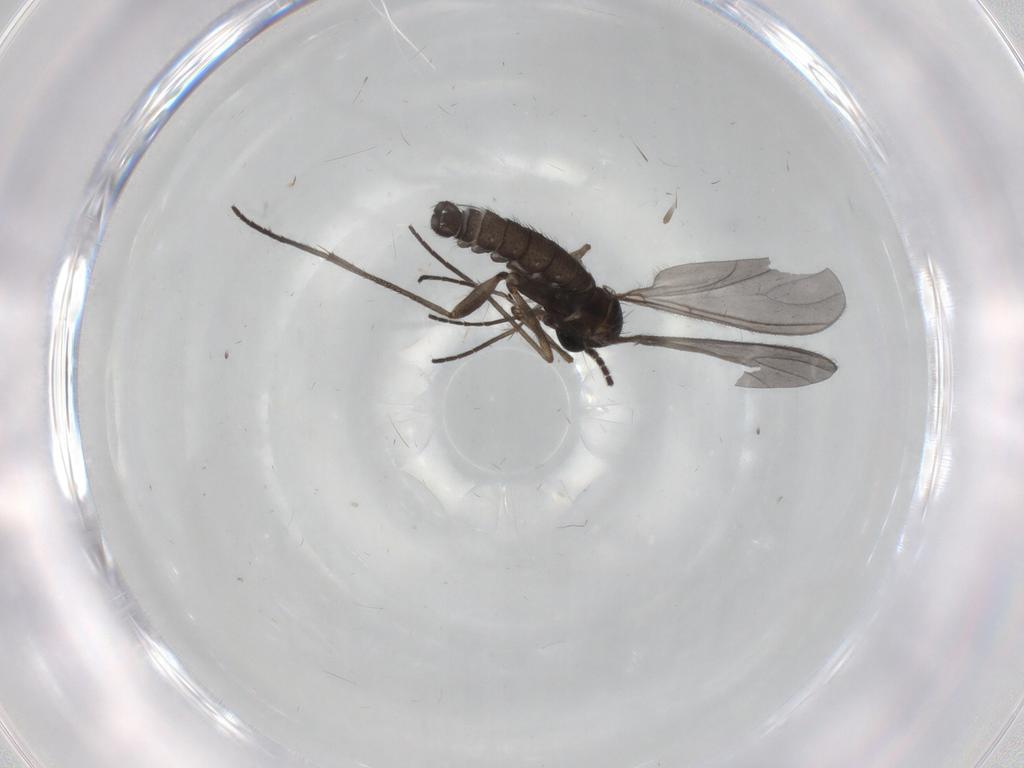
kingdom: Animalia
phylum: Arthropoda
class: Insecta
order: Diptera
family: Sciaridae
